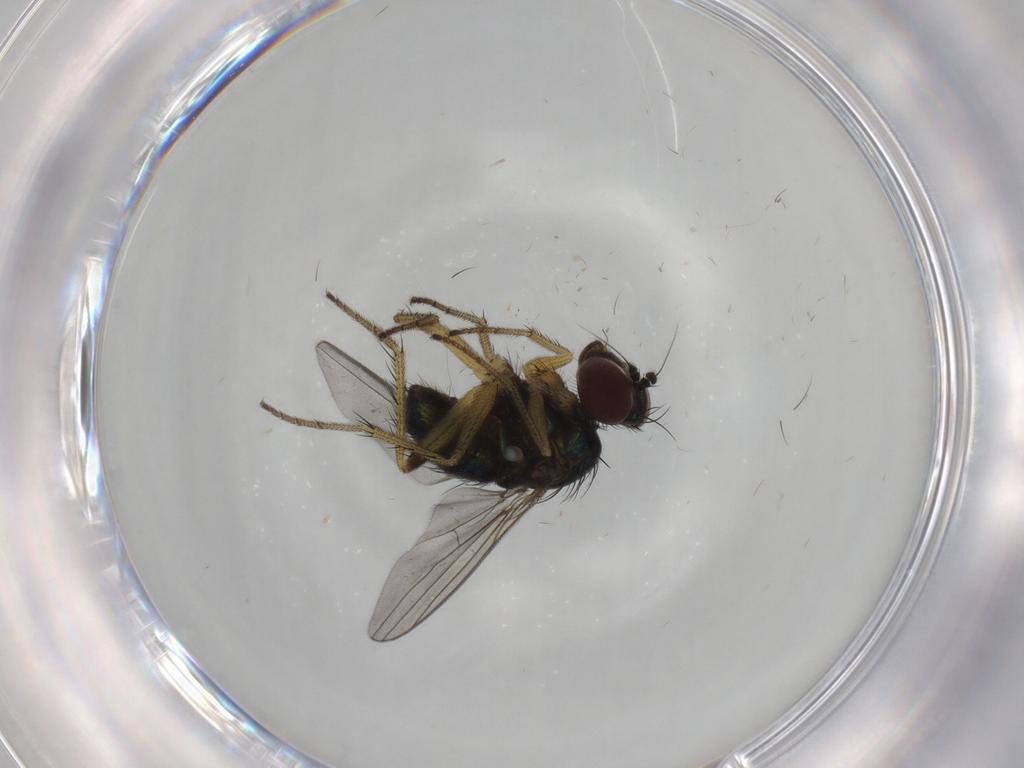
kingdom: Animalia
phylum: Arthropoda
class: Insecta
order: Diptera
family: Dolichopodidae
